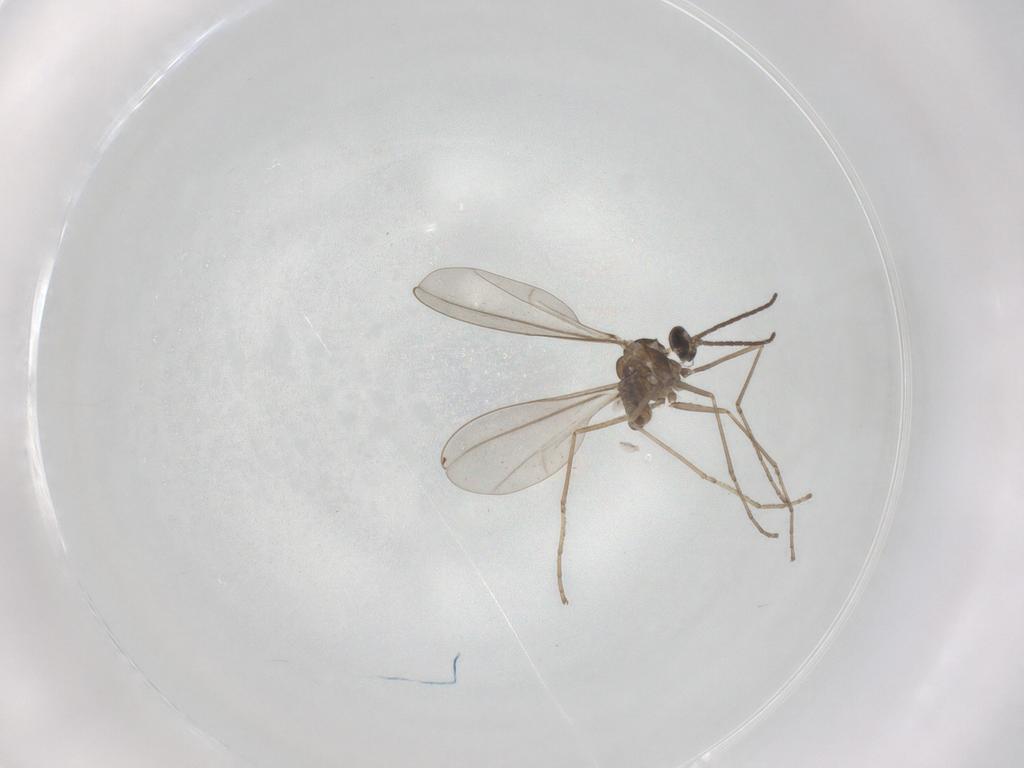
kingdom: Animalia
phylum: Arthropoda
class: Insecta
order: Diptera
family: Cecidomyiidae
